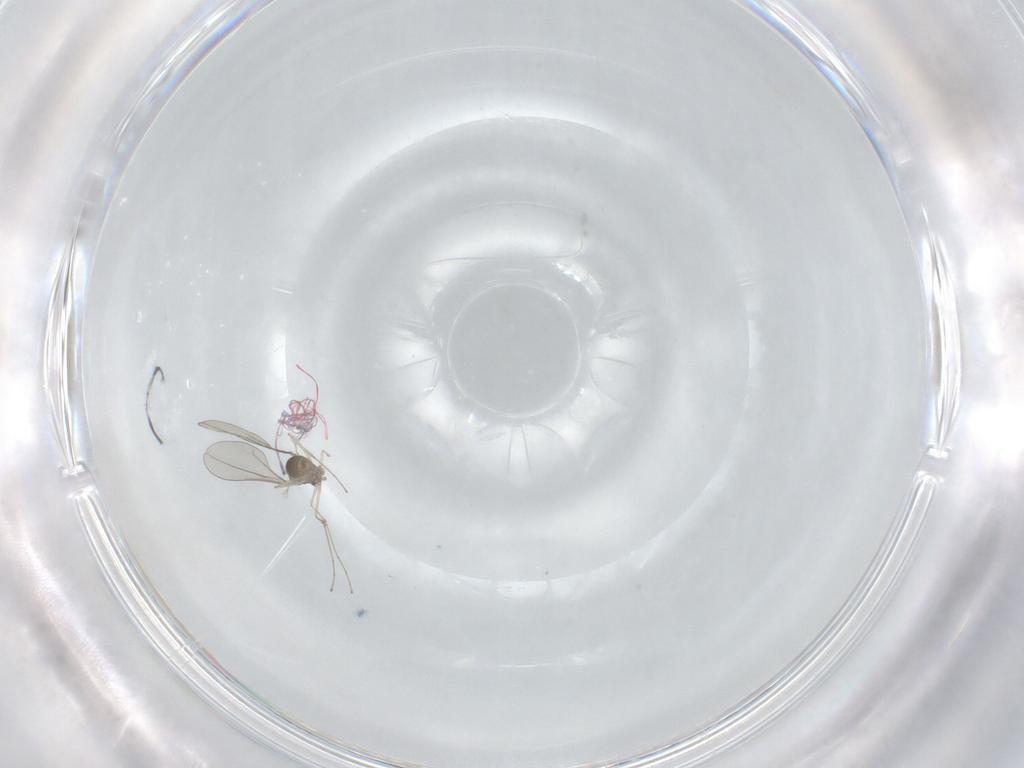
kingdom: Animalia
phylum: Arthropoda
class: Insecta
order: Diptera
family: Cecidomyiidae
